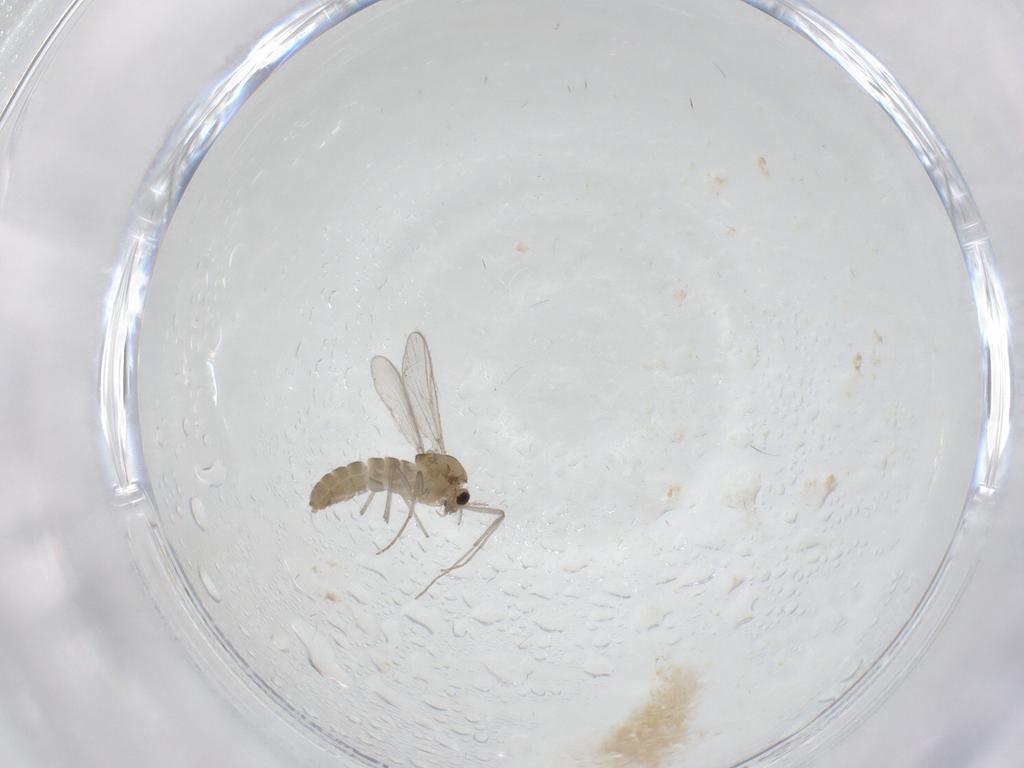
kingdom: Animalia
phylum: Arthropoda
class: Insecta
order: Diptera
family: Chironomidae
